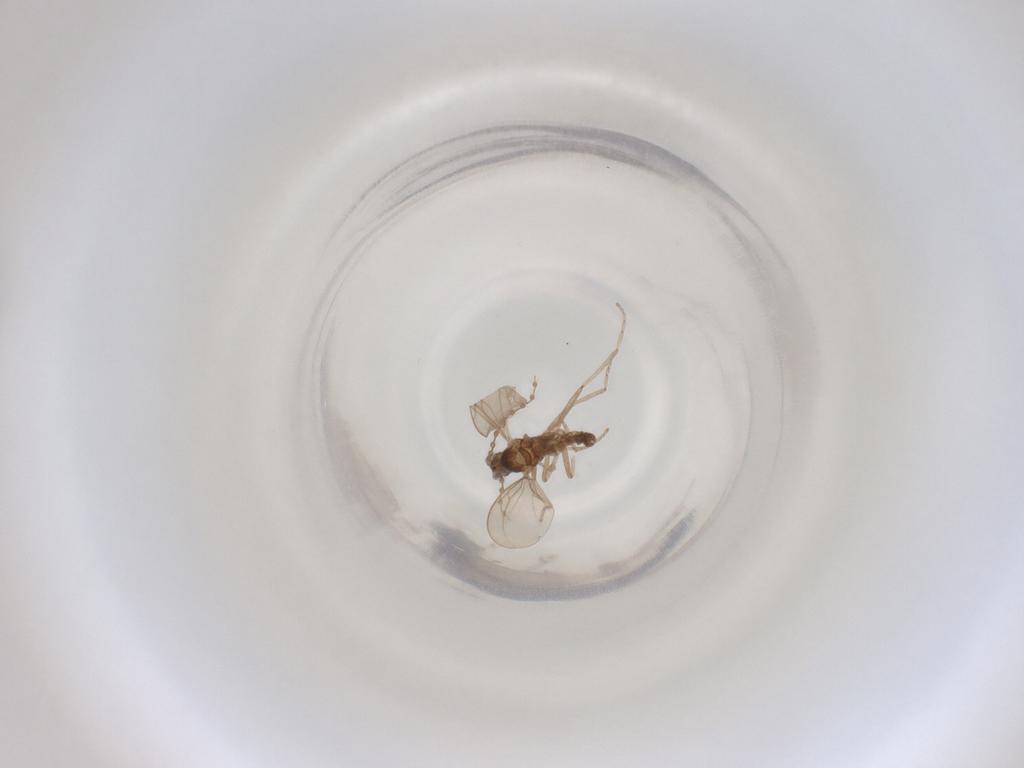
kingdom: Animalia
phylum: Arthropoda
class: Insecta
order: Diptera
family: Cecidomyiidae
